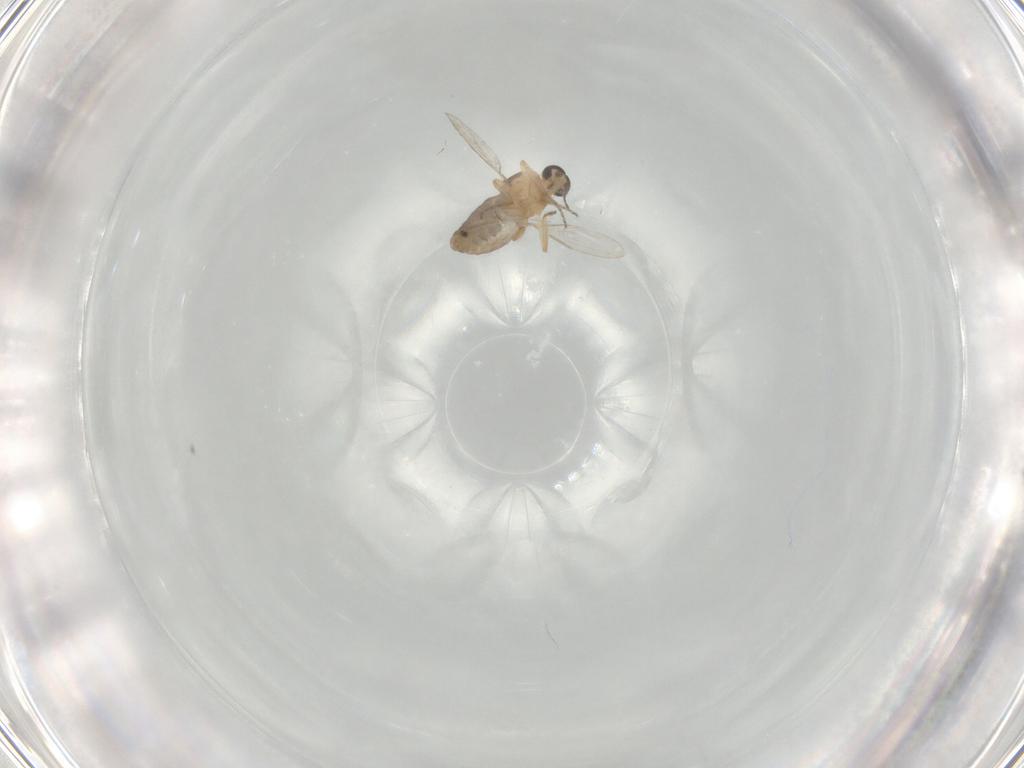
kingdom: Animalia
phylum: Arthropoda
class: Insecta
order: Diptera
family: Ceratopogonidae
